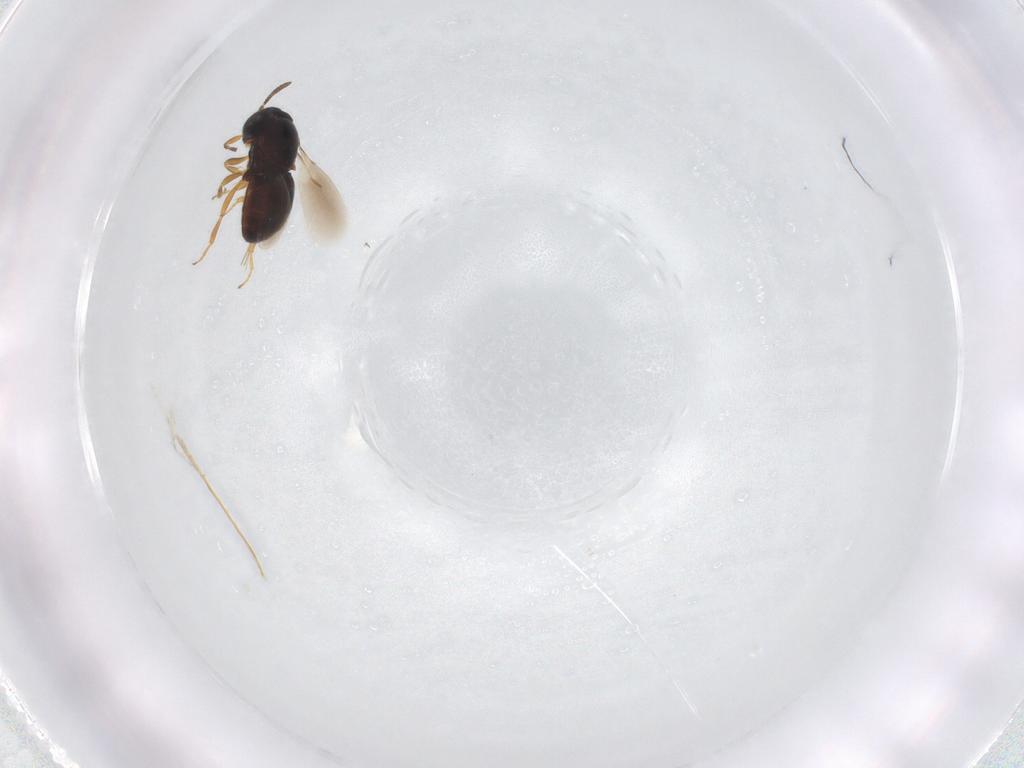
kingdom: Animalia
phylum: Arthropoda
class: Insecta
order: Hymenoptera
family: Scelionidae
